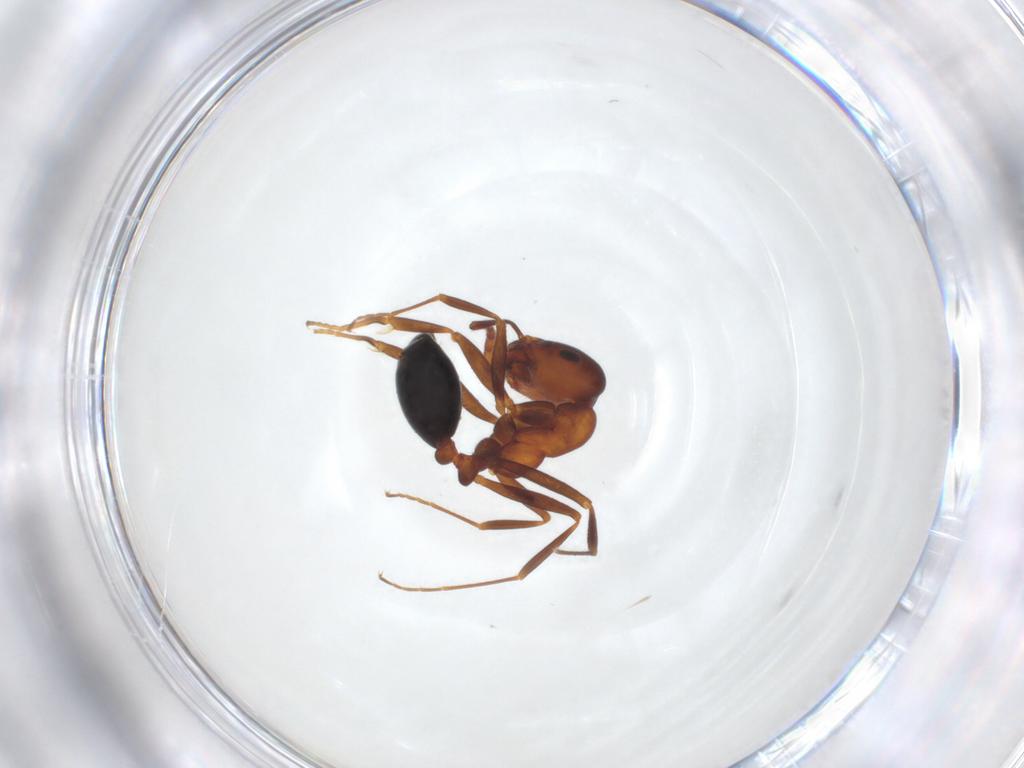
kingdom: Animalia
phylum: Arthropoda
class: Insecta
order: Hymenoptera
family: Formicidae
